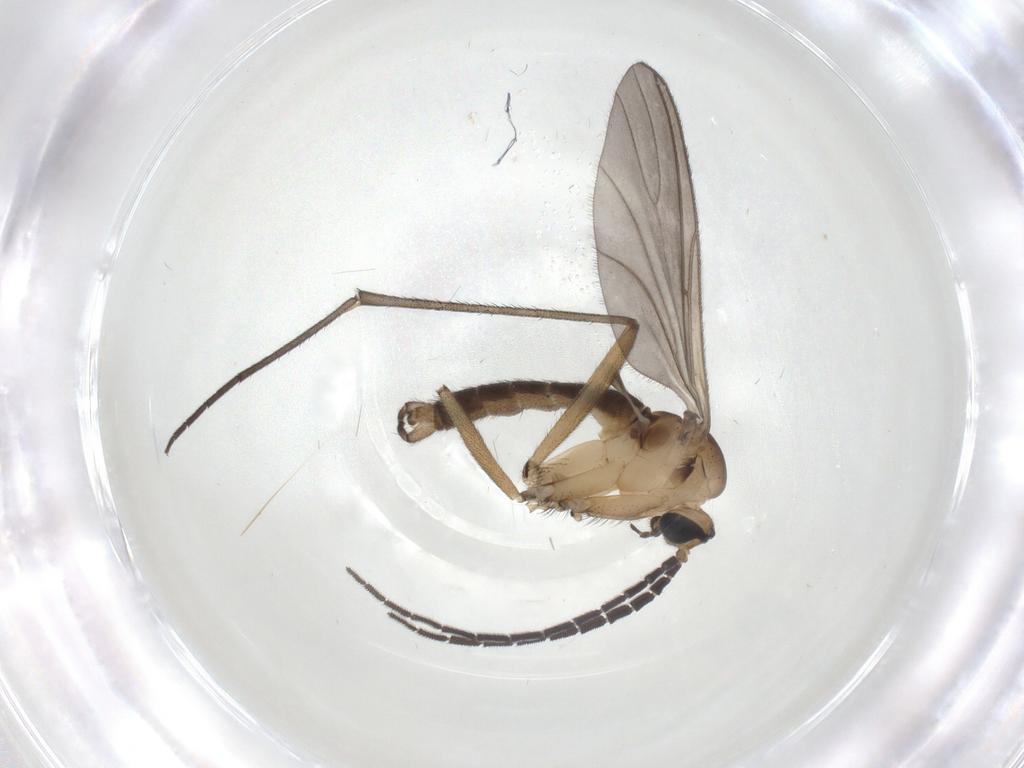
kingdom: Animalia
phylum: Arthropoda
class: Insecta
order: Diptera
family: Sciaridae
